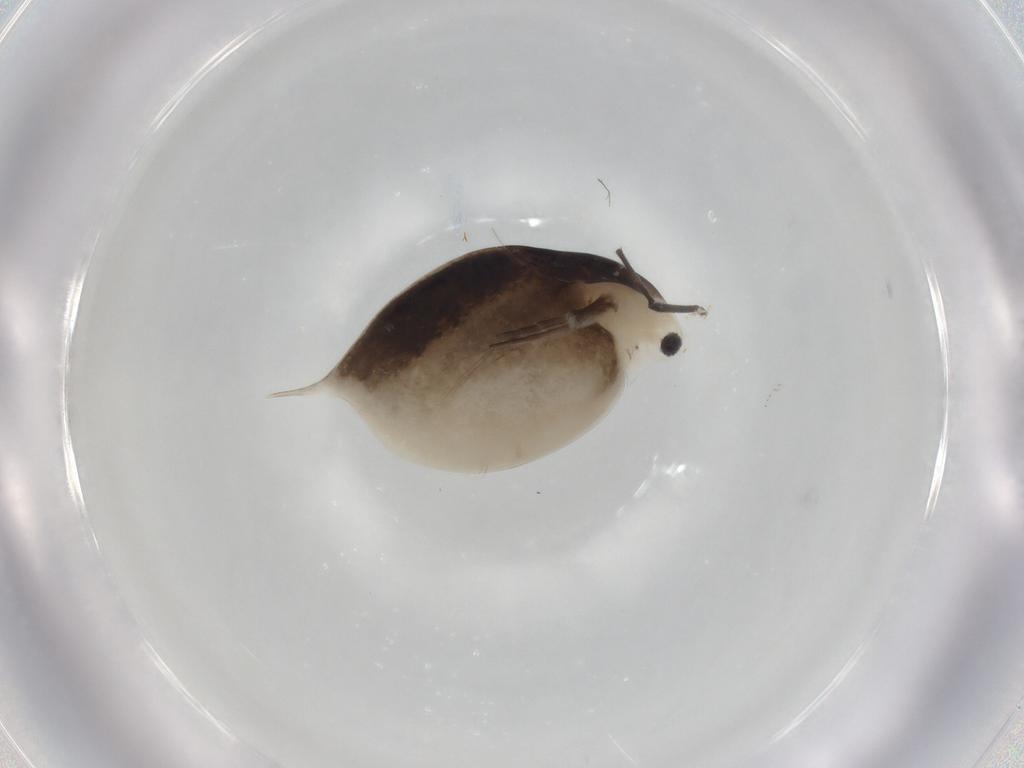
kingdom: Animalia
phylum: Arthropoda
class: Branchiopoda
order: Diplostraca
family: Daphniidae
